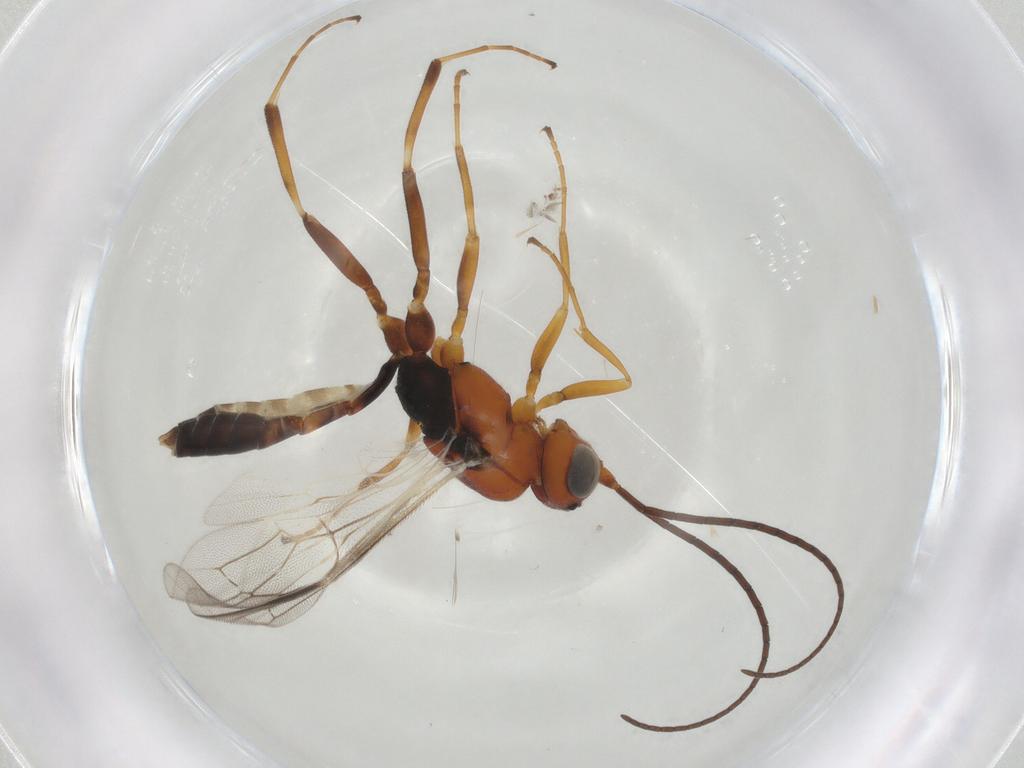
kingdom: Animalia
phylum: Arthropoda
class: Insecta
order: Hymenoptera
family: Ichneumonidae
